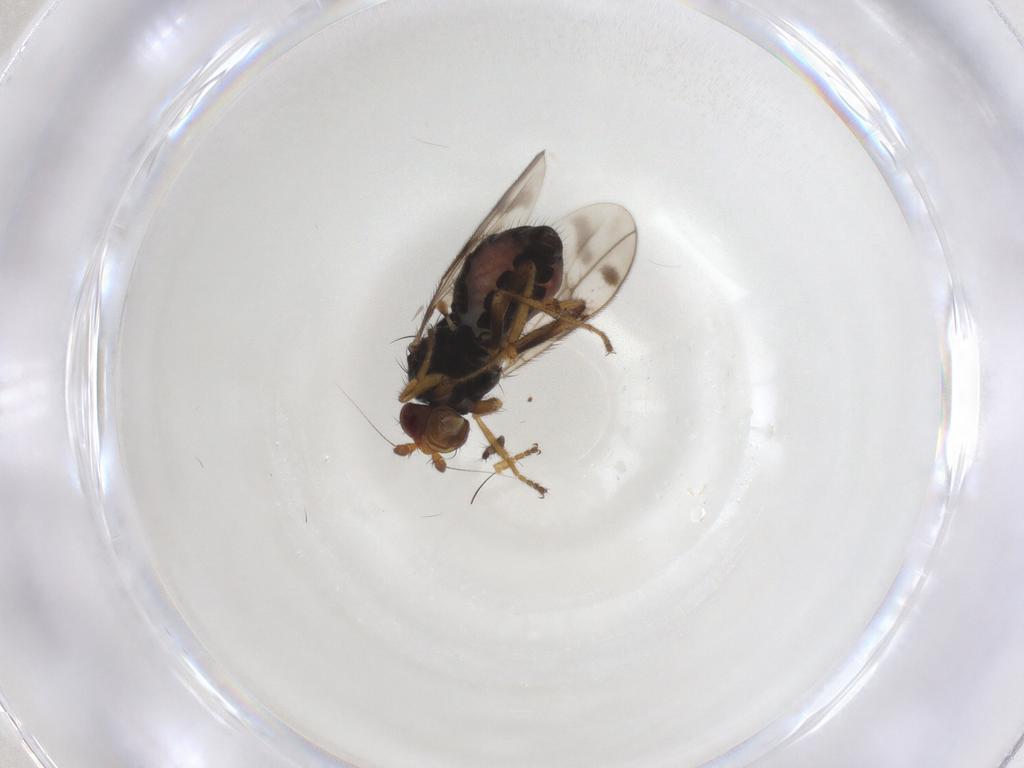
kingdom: Animalia
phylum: Arthropoda
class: Insecta
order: Diptera
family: Sphaeroceridae
